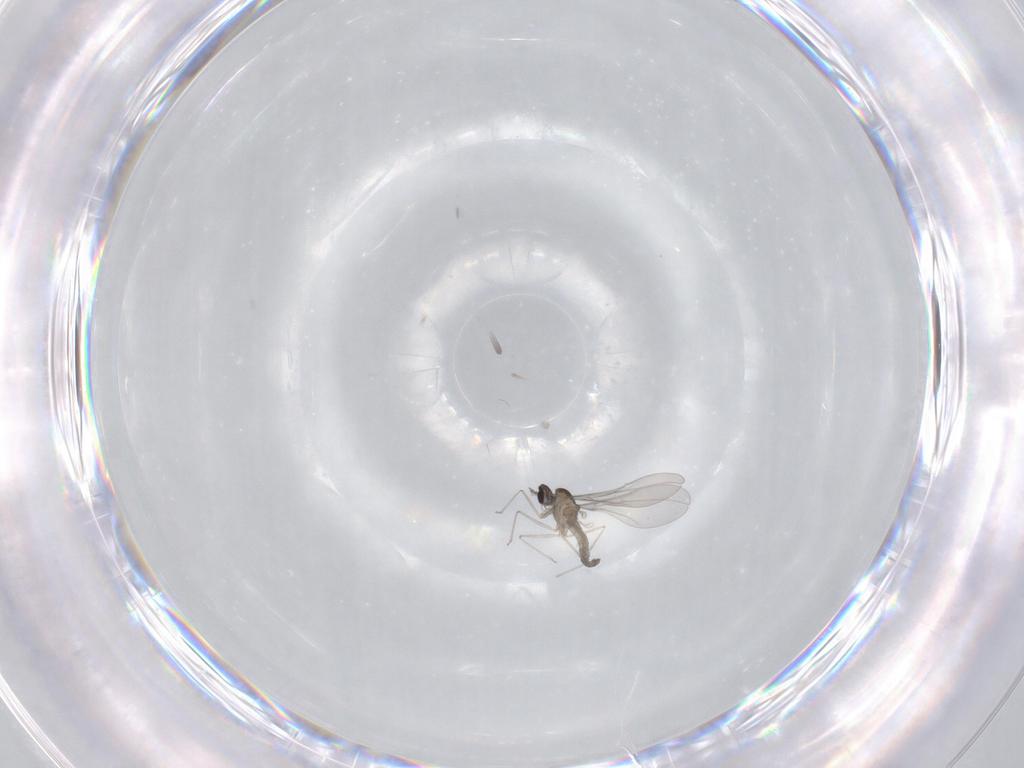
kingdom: Animalia
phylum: Arthropoda
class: Insecta
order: Diptera
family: Cecidomyiidae
